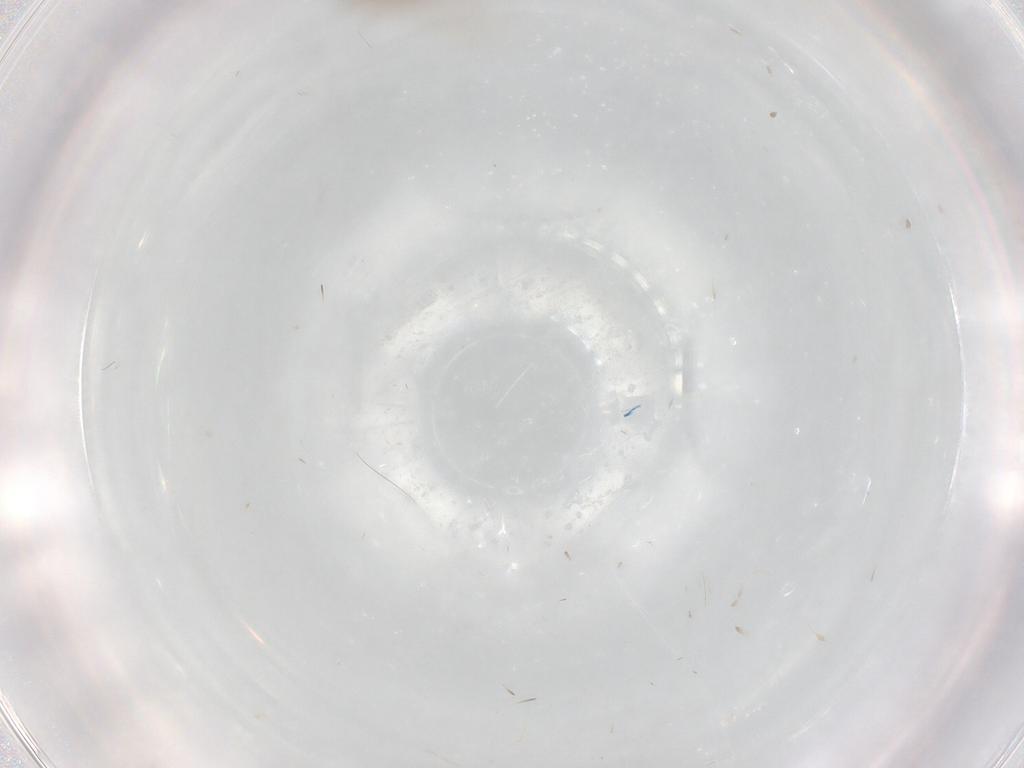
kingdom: Animalia
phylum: Arthropoda
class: Insecta
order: Diptera
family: Psychodidae
